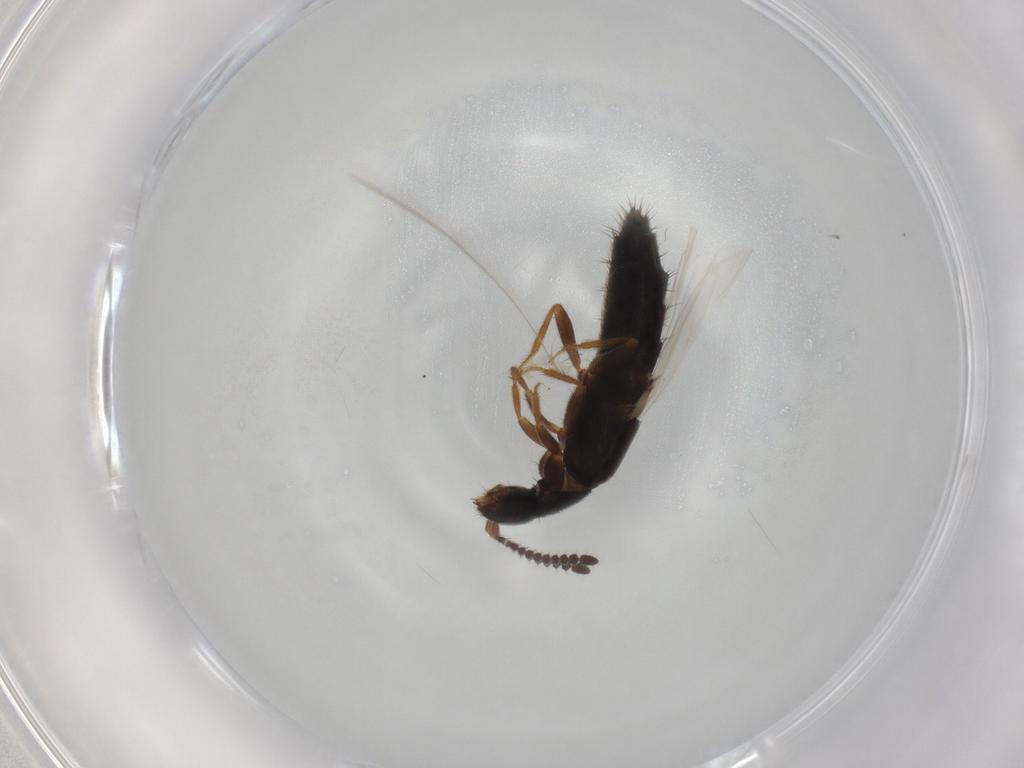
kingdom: Animalia
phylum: Arthropoda
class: Insecta
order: Coleoptera
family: Staphylinidae
